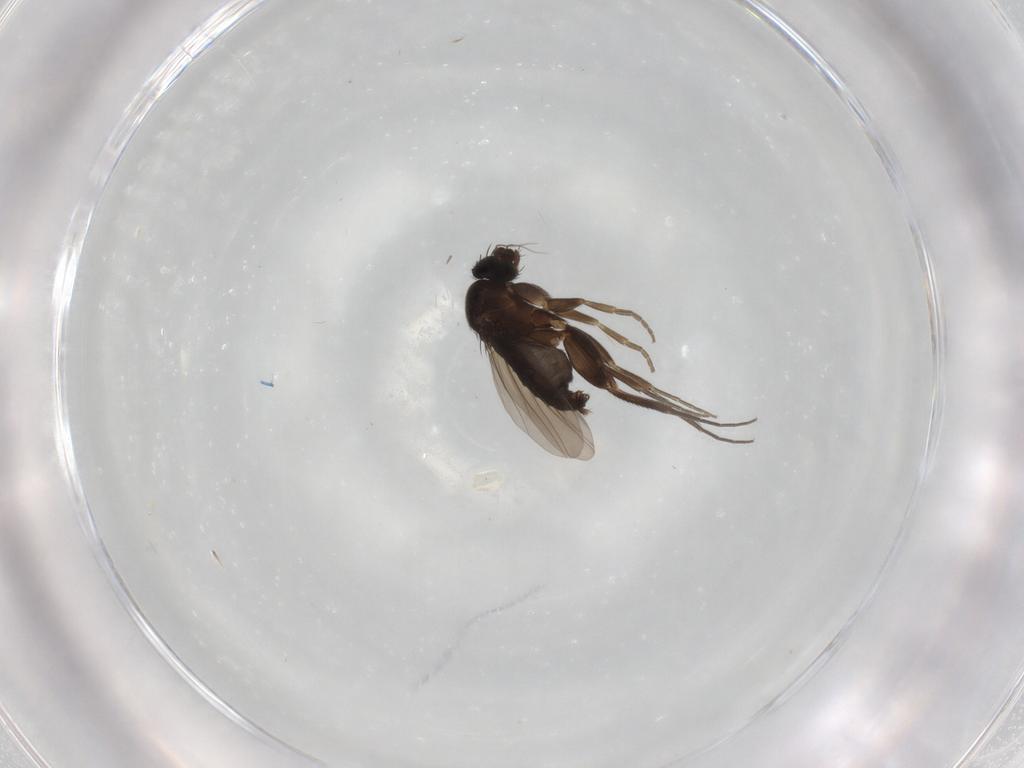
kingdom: Animalia
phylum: Arthropoda
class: Insecta
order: Diptera
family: Phoridae
